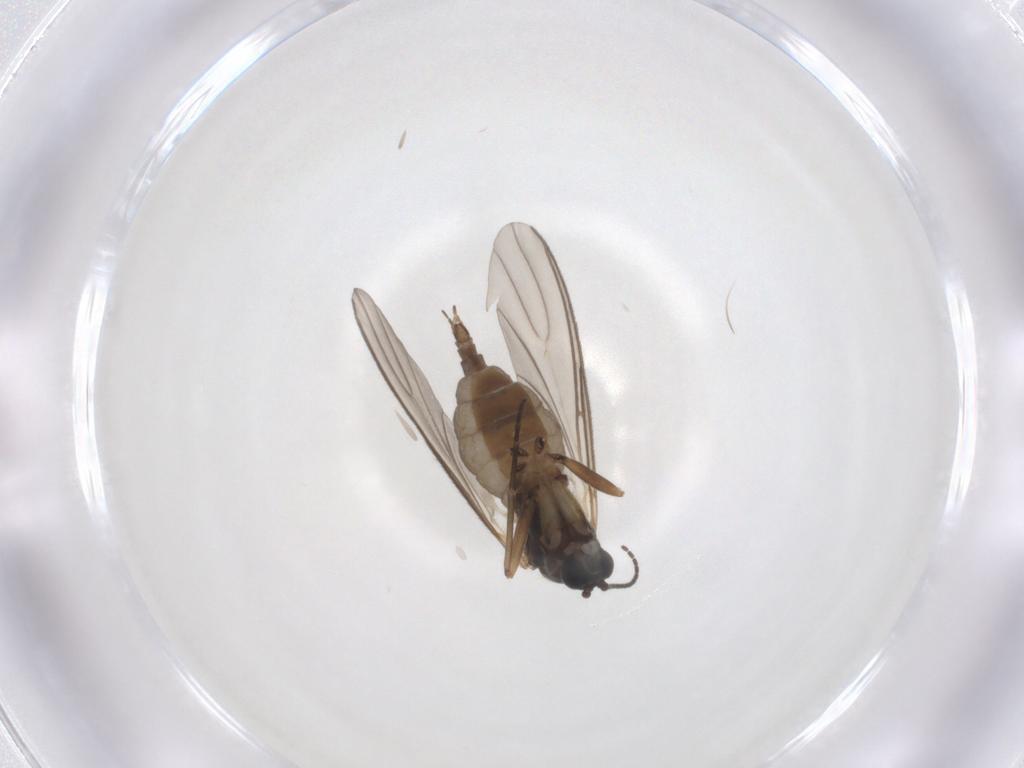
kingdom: Animalia
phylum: Arthropoda
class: Insecta
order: Diptera
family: Sciaridae
